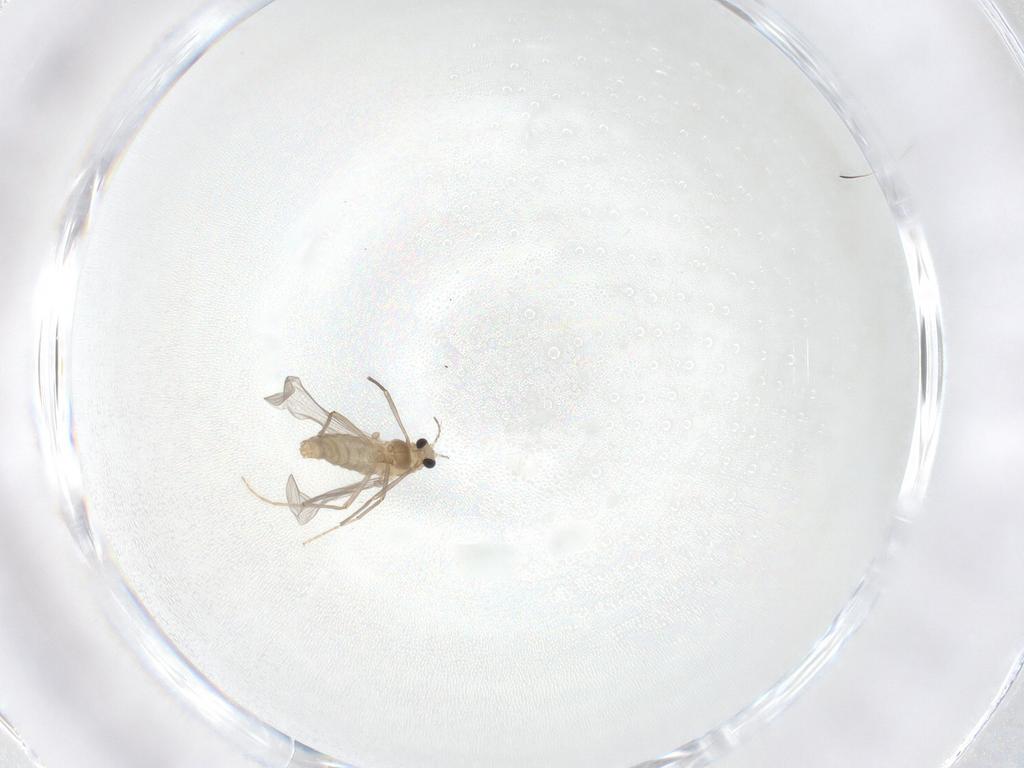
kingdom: Animalia
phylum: Arthropoda
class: Insecta
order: Diptera
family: Chironomidae
